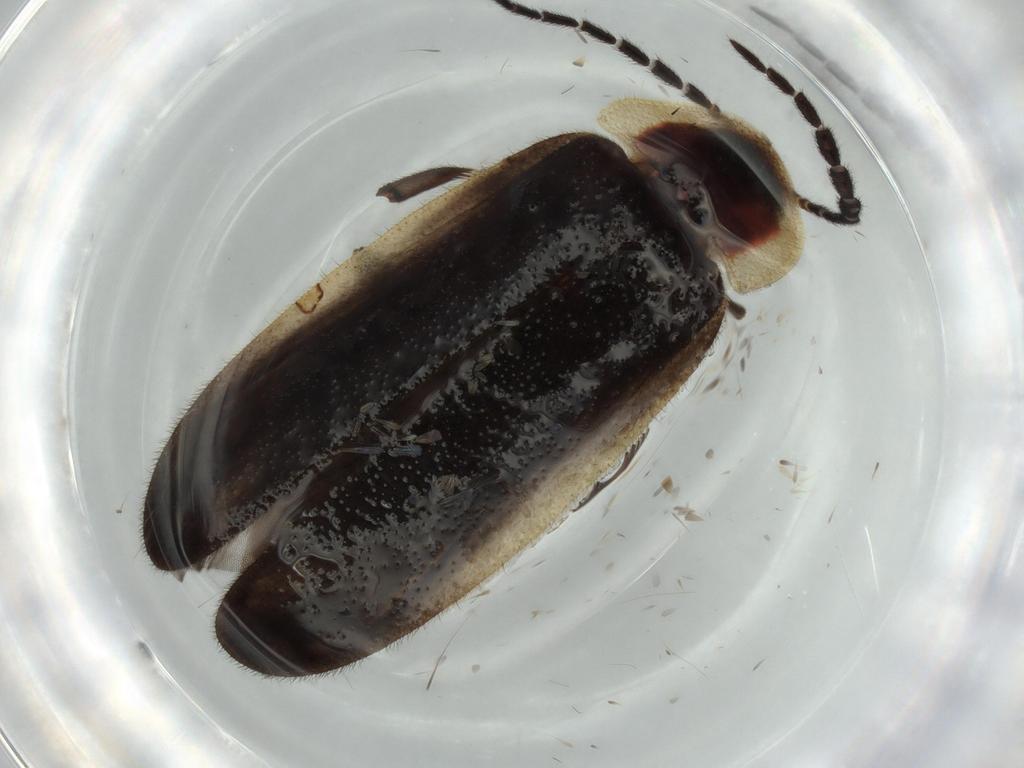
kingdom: Animalia
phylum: Arthropoda
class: Insecta
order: Coleoptera
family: Lampyridae
